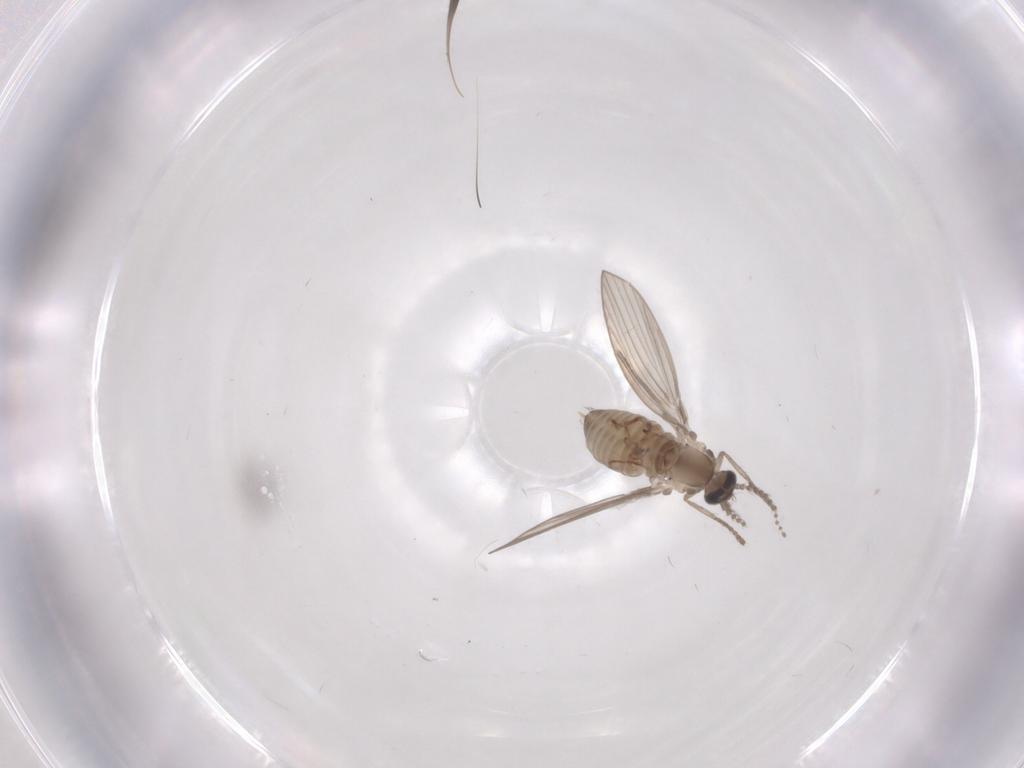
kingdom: Animalia
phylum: Arthropoda
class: Insecta
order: Diptera
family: Psychodidae
